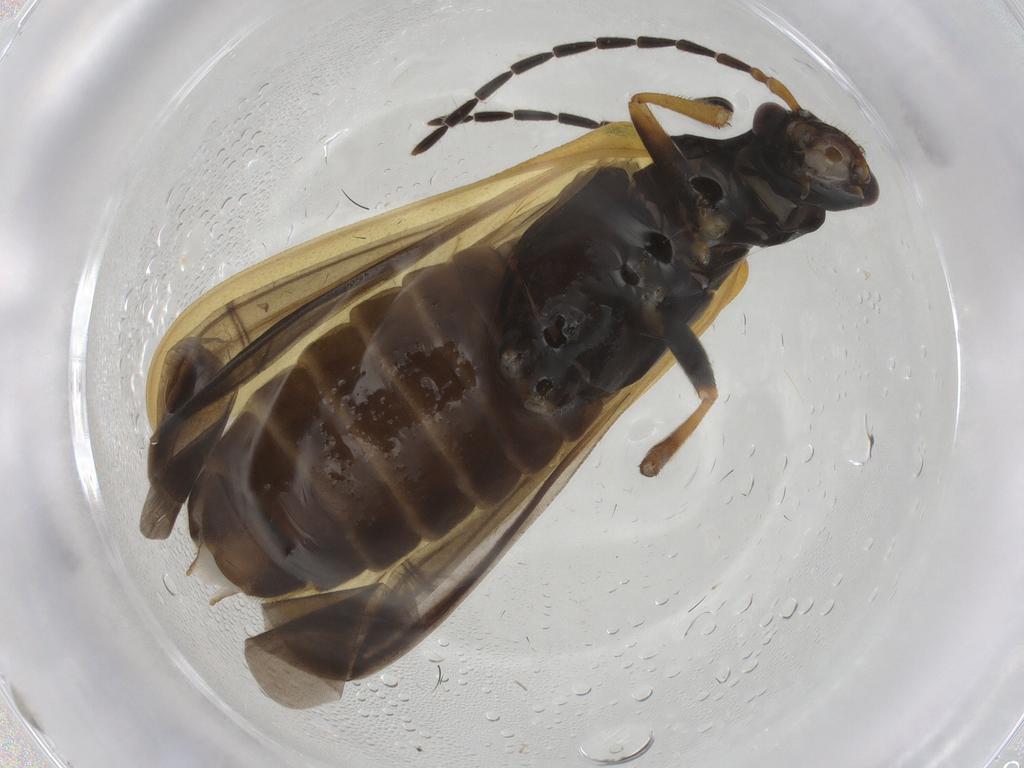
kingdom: Animalia
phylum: Arthropoda
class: Insecta
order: Coleoptera
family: Cantharidae
